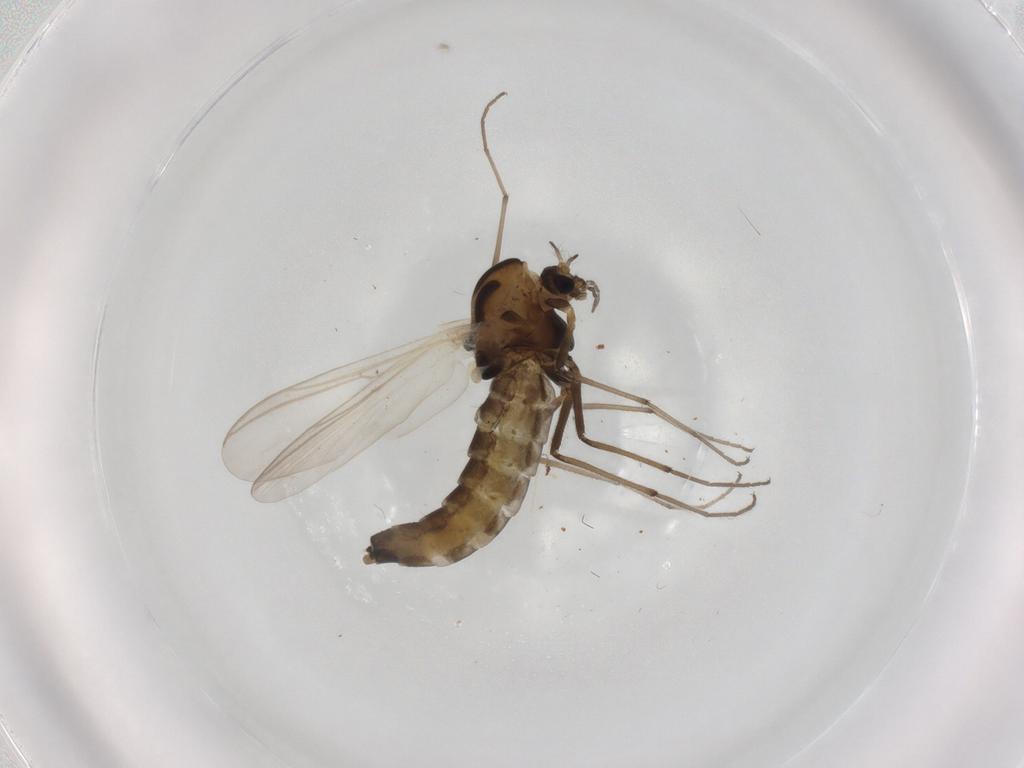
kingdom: Animalia
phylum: Arthropoda
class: Insecta
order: Diptera
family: Chironomidae
